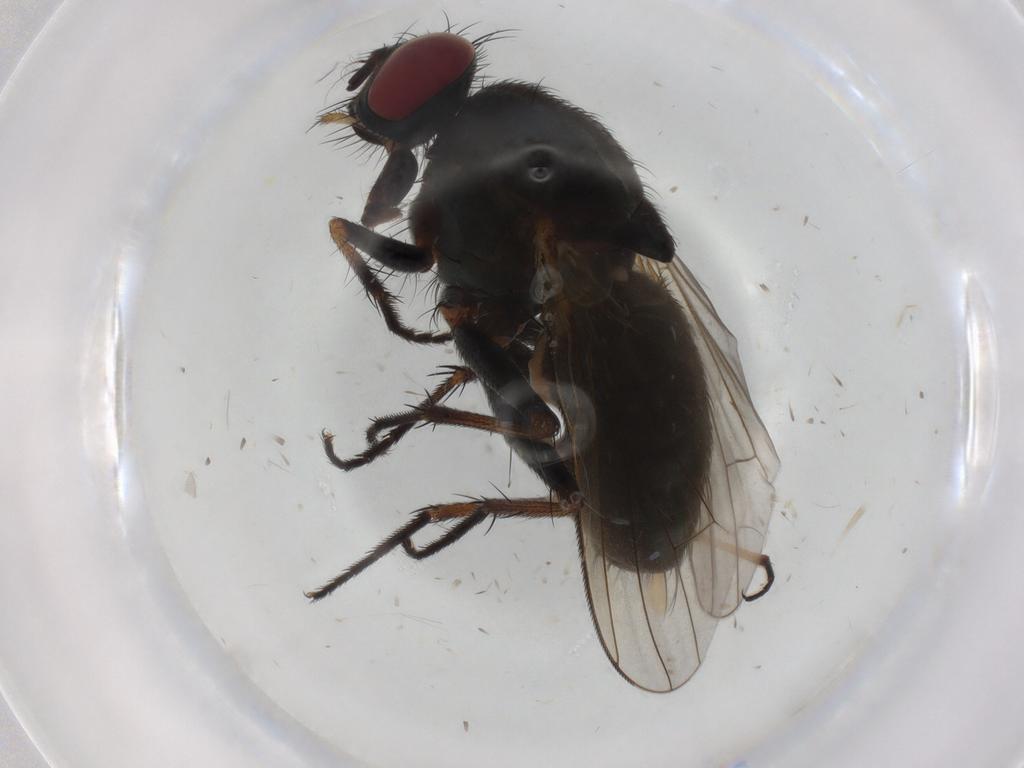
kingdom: Animalia
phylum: Arthropoda
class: Insecta
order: Diptera
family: Muscidae
